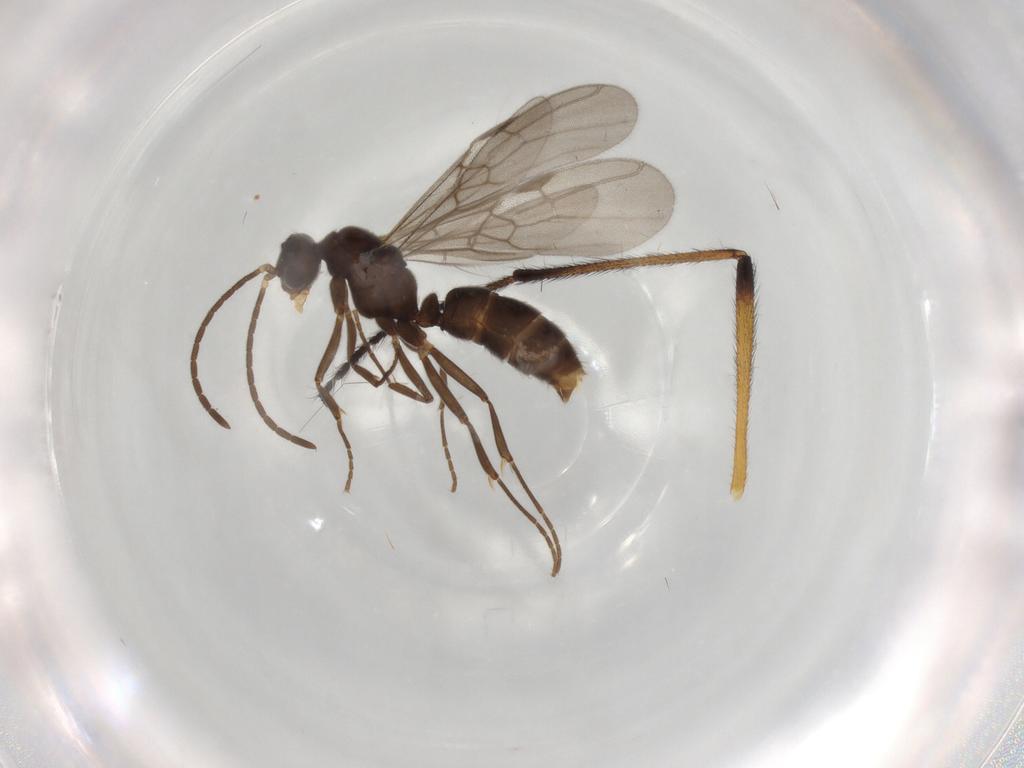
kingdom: Animalia
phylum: Arthropoda
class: Insecta
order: Hymenoptera
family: Formicidae
